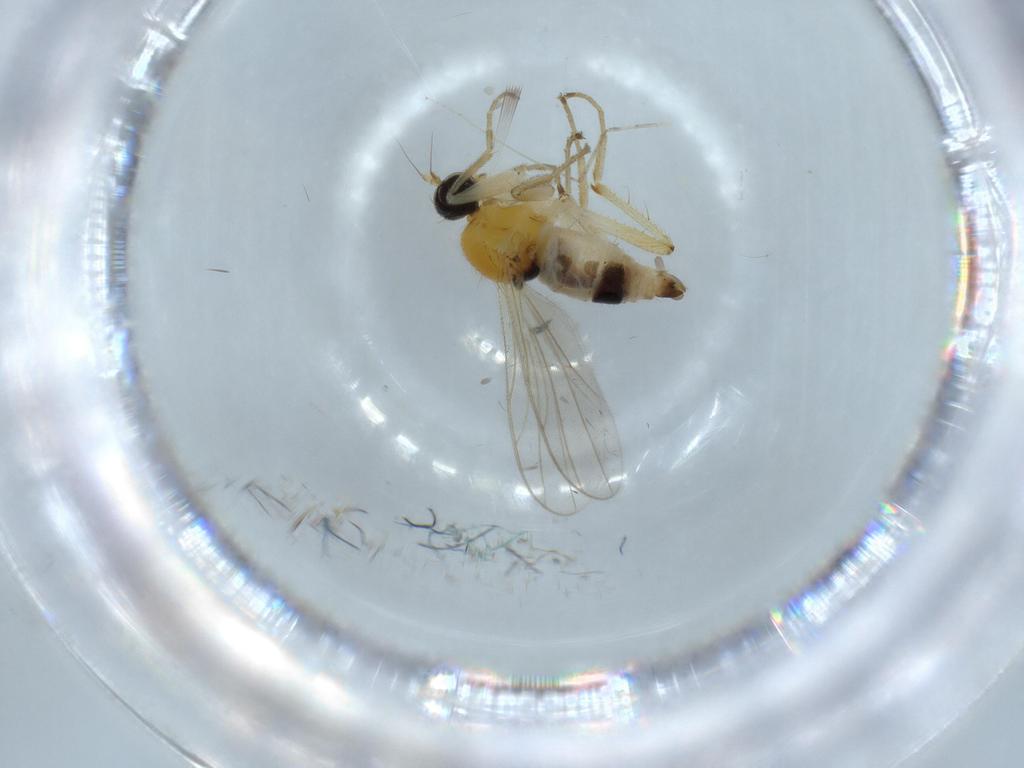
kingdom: Animalia
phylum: Arthropoda
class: Insecta
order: Diptera
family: Hybotidae
